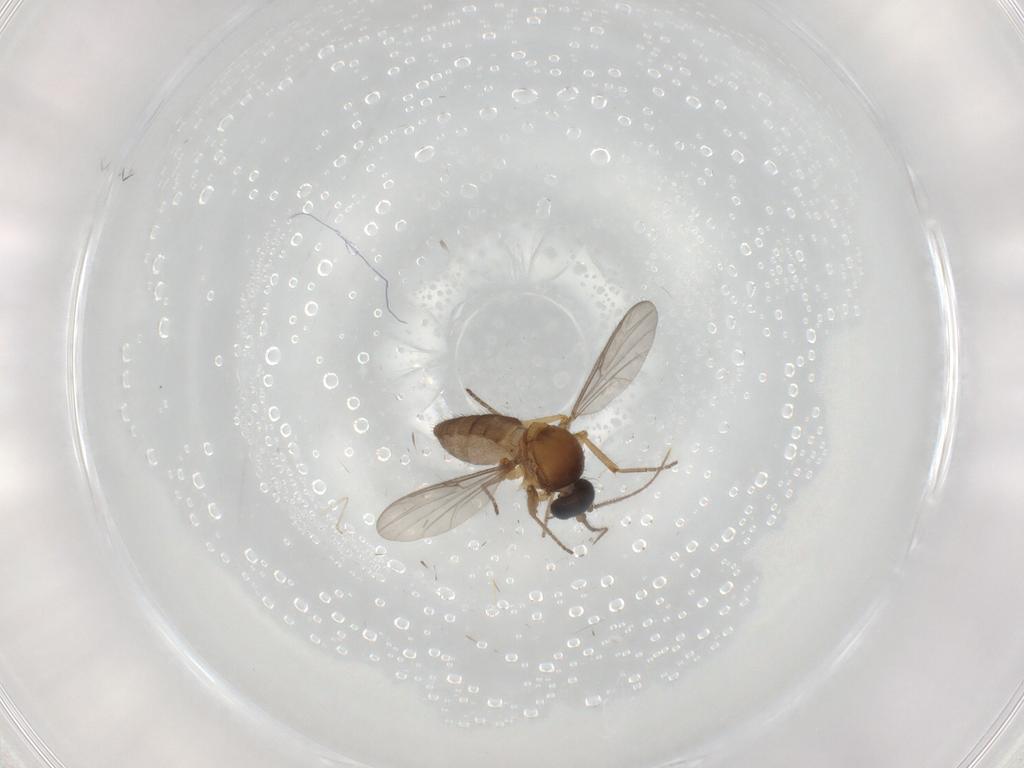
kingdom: Animalia
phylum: Arthropoda
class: Insecta
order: Diptera
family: Ceratopogonidae
